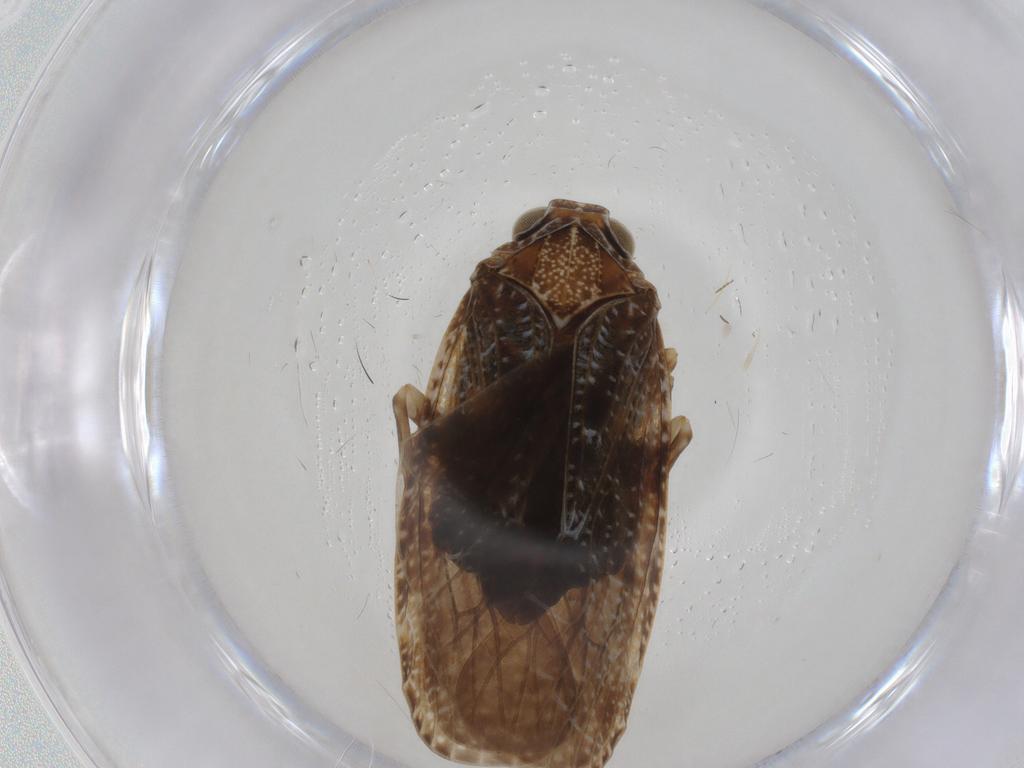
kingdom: Animalia
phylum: Arthropoda
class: Insecta
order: Hemiptera
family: Achilidae
